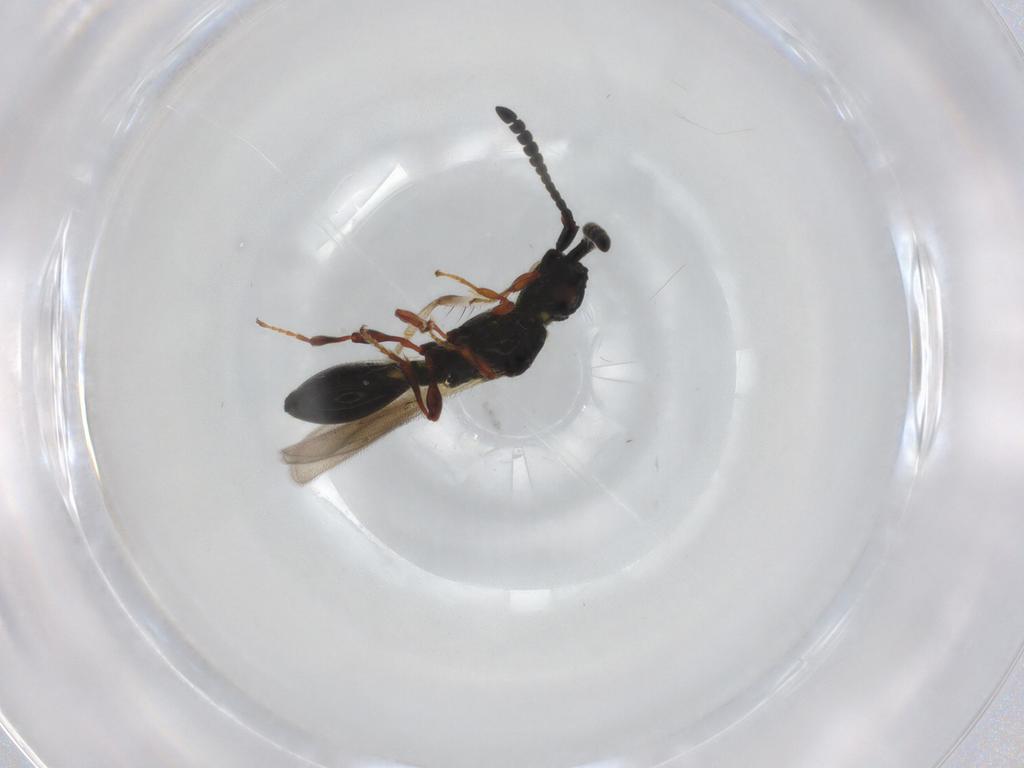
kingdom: Animalia
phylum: Arthropoda
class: Insecta
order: Hymenoptera
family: Diapriidae
